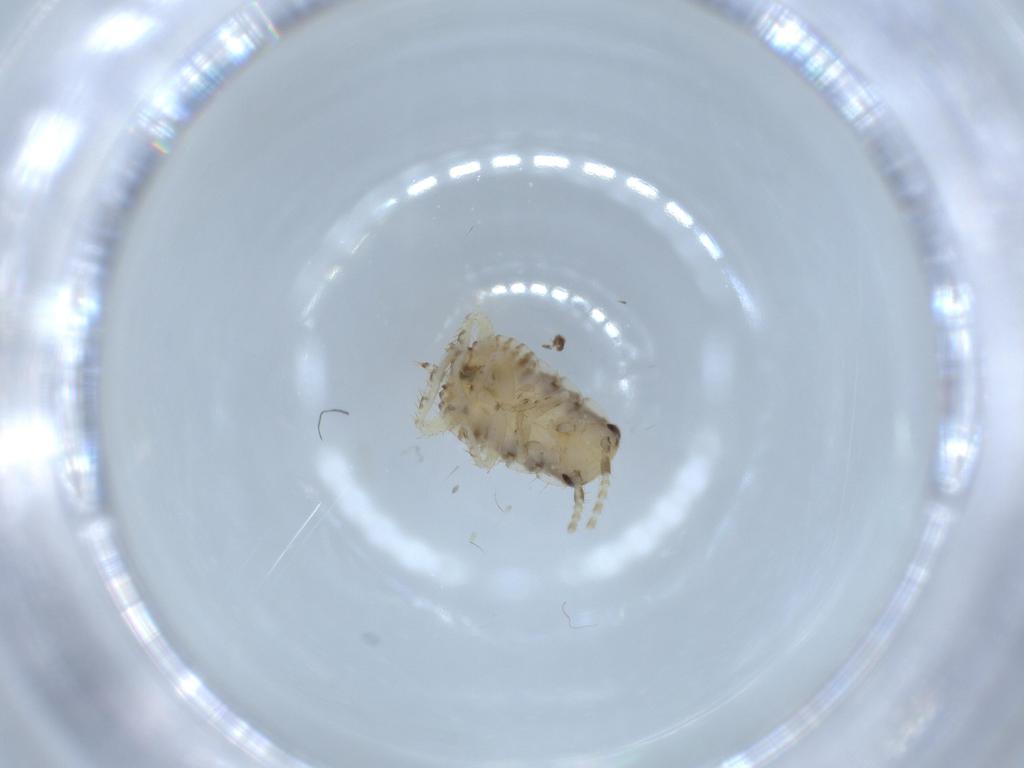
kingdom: Animalia
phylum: Arthropoda
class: Insecta
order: Blattodea
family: Ectobiidae
